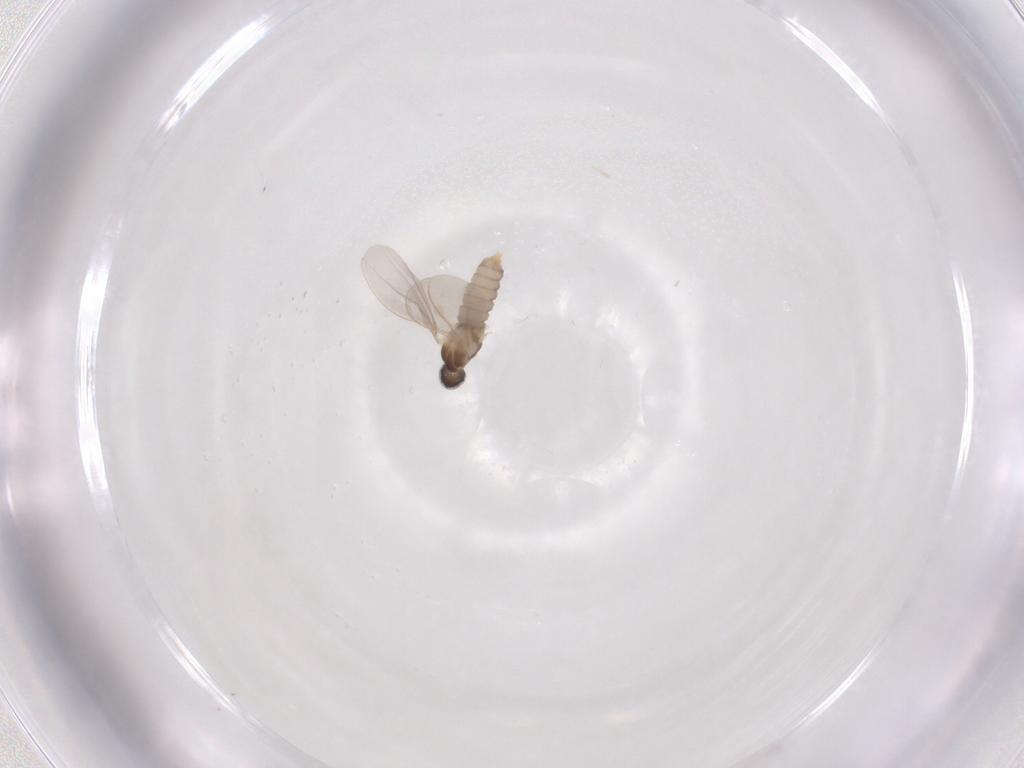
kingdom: Animalia
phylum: Arthropoda
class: Insecta
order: Diptera
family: Cecidomyiidae
